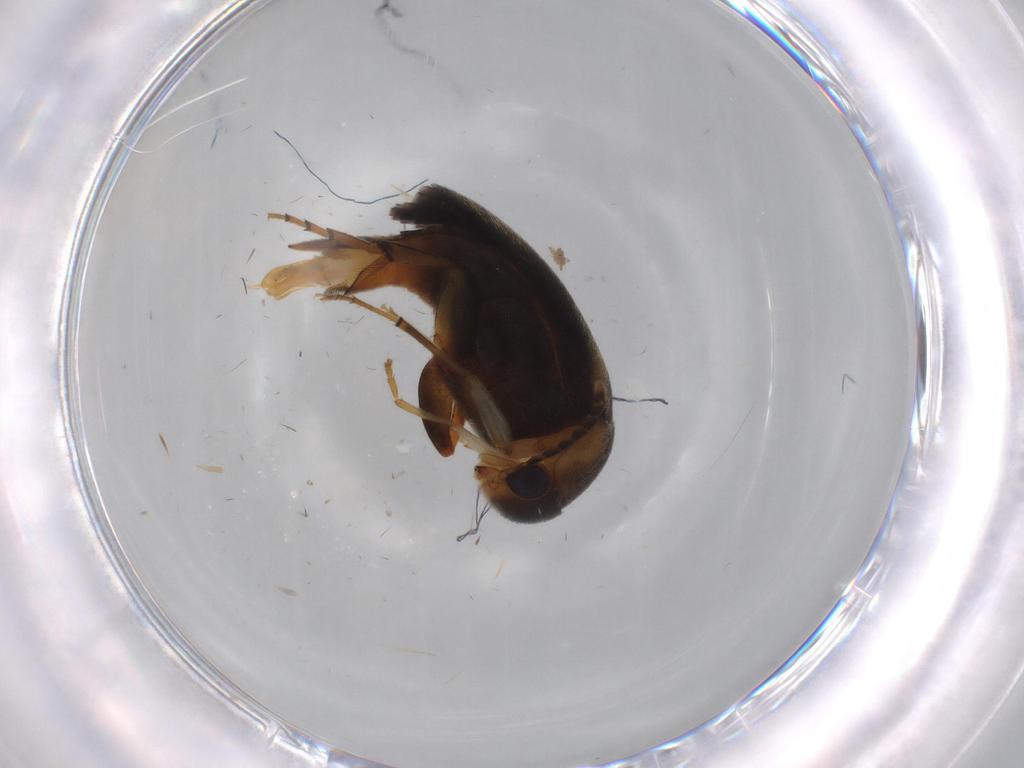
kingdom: Animalia
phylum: Arthropoda
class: Insecta
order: Coleoptera
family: Mordellidae
